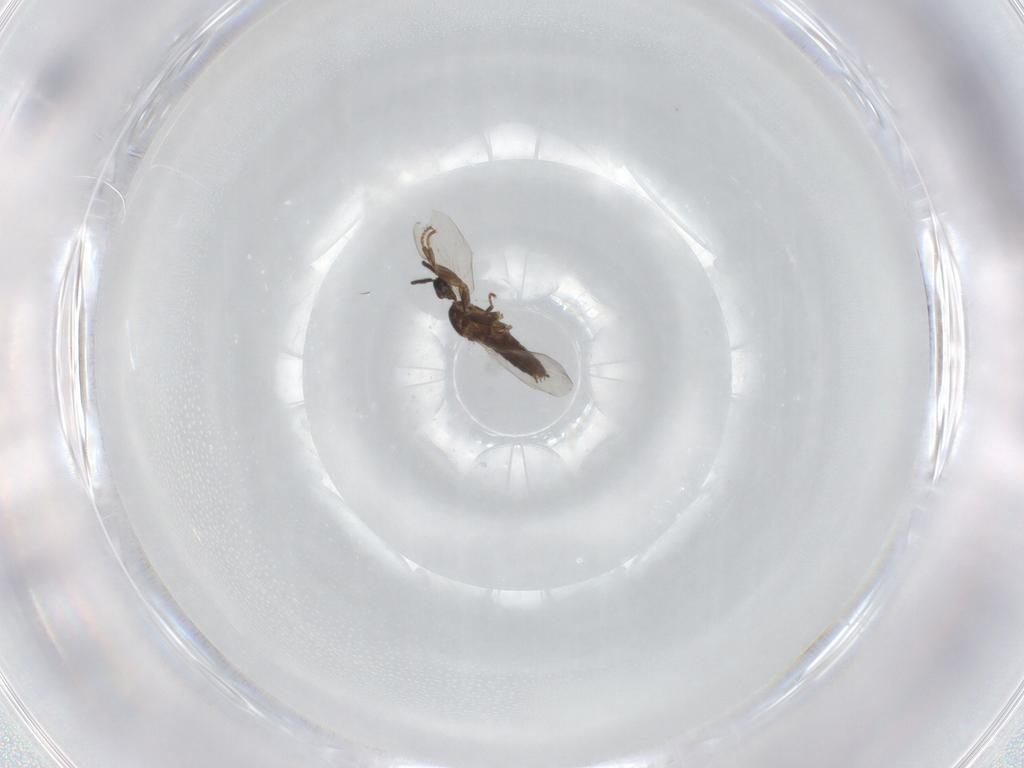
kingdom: Animalia
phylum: Arthropoda
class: Insecta
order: Diptera
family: Scatopsidae
